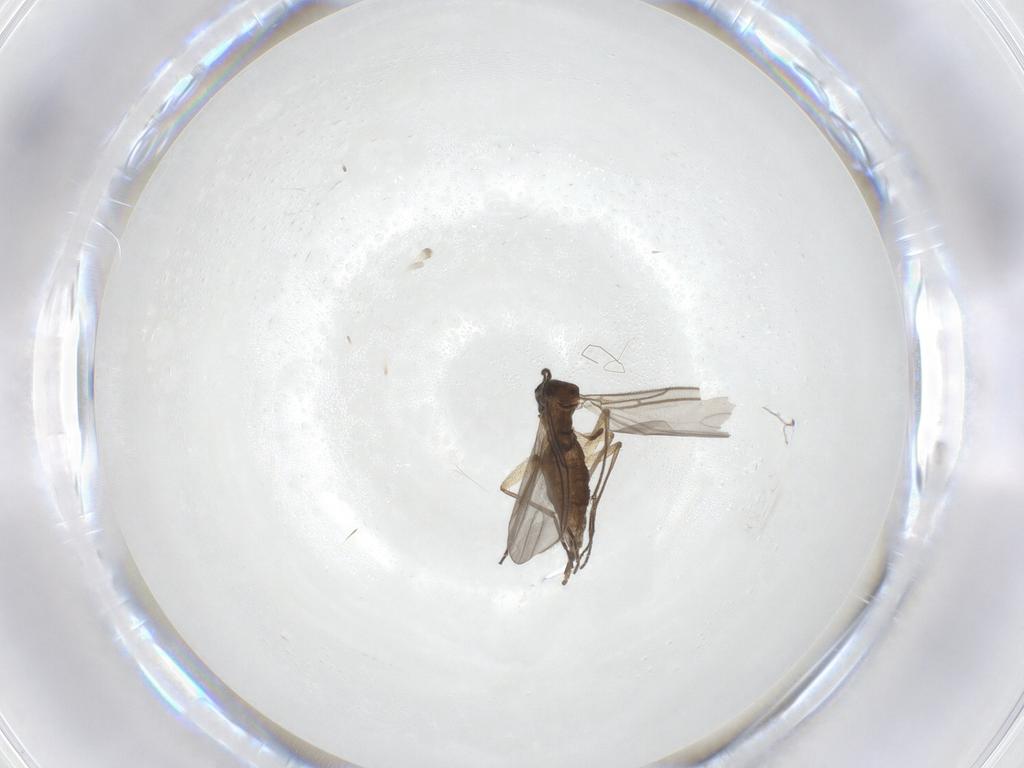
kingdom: Animalia
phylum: Arthropoda
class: Insecta
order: Diptera
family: Sciaridae
